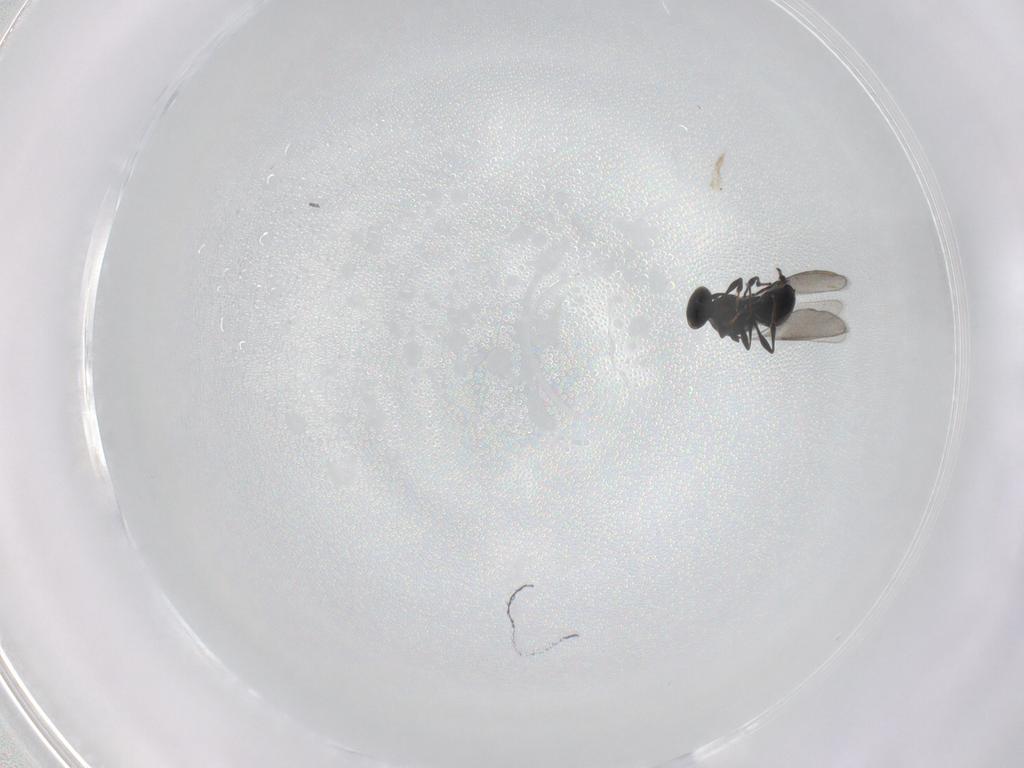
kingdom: Animalia
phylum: Arthropoda
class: Insecta
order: Hymenoptera
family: Platygastridae
